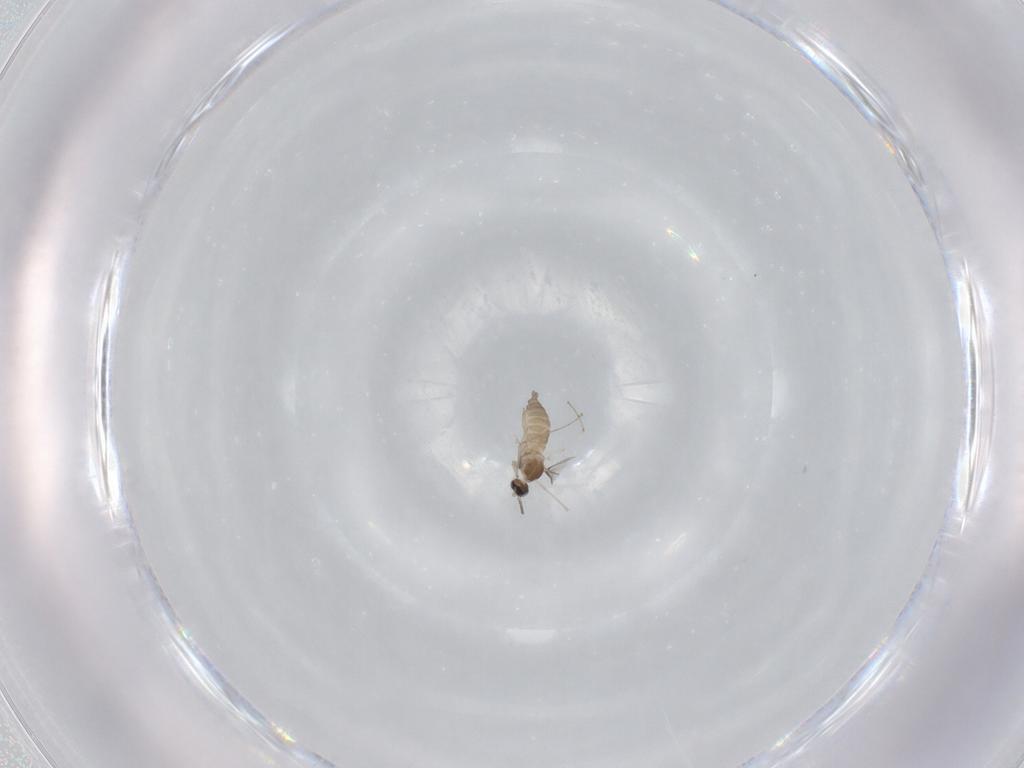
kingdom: Animalia
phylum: Arthropoda
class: Insecta
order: Diptera
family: Cecidomyiidae
